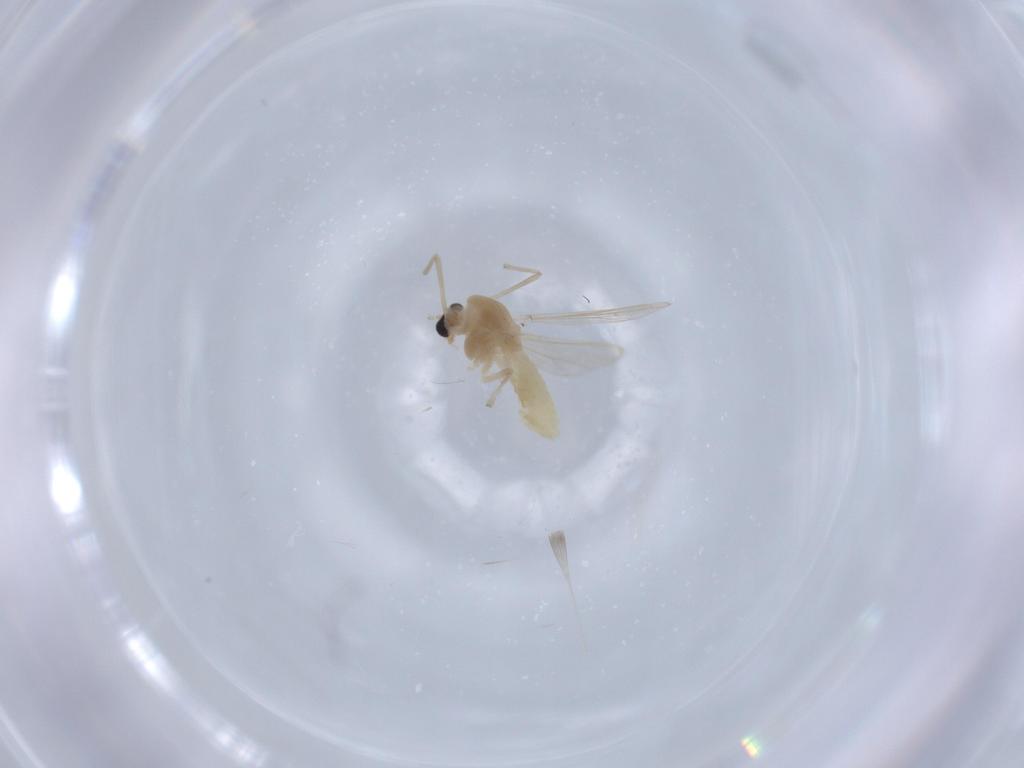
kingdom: Animalia
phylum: Arthropoda
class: Insecta
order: Diptera
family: Chironomidae
